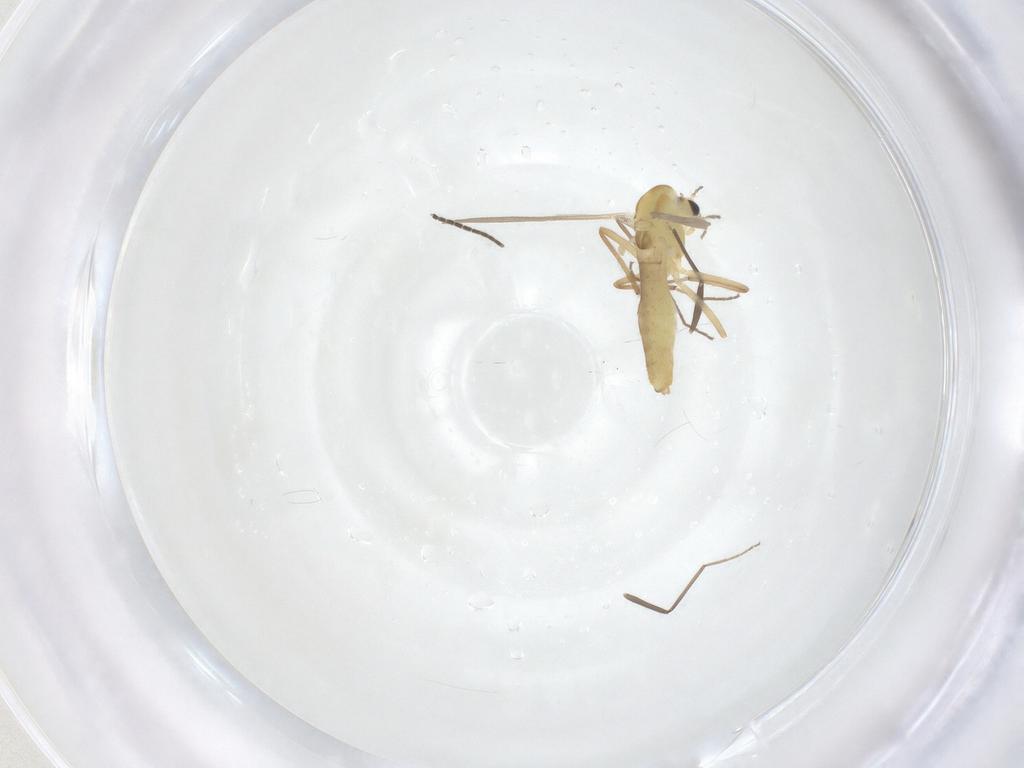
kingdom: Animalia
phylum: Arthropoda
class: Insecta
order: Diptera
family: Chironomidae
